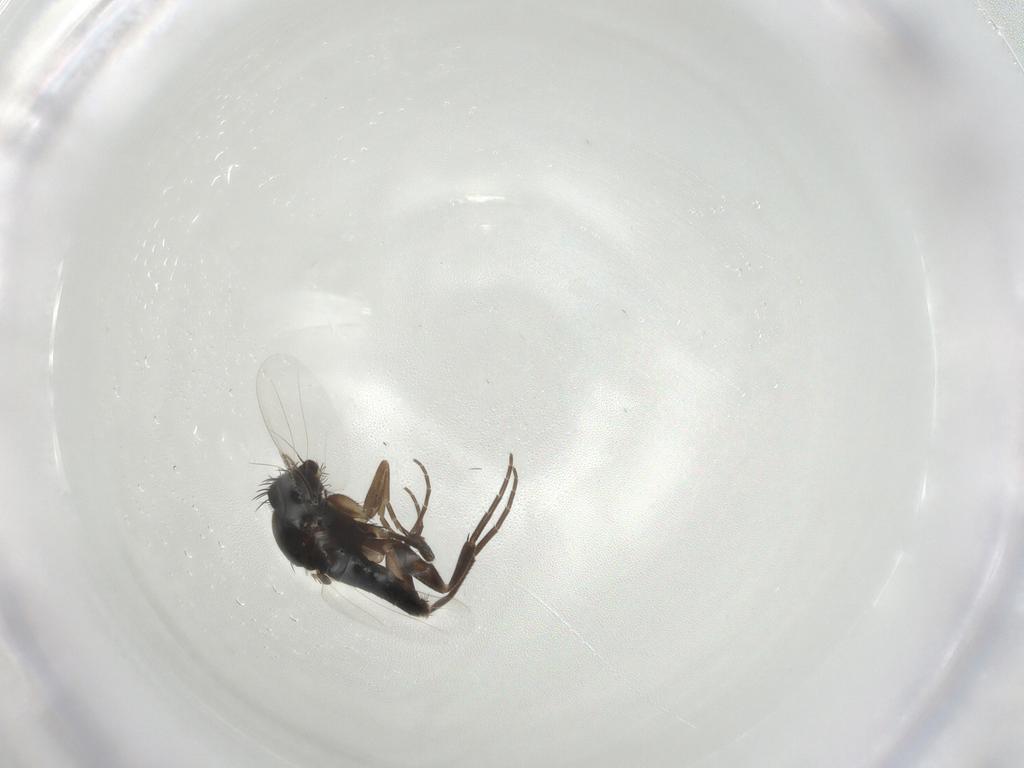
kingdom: Animalia
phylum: Arthropoda
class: Insecta
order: Diptera
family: Phoridae
